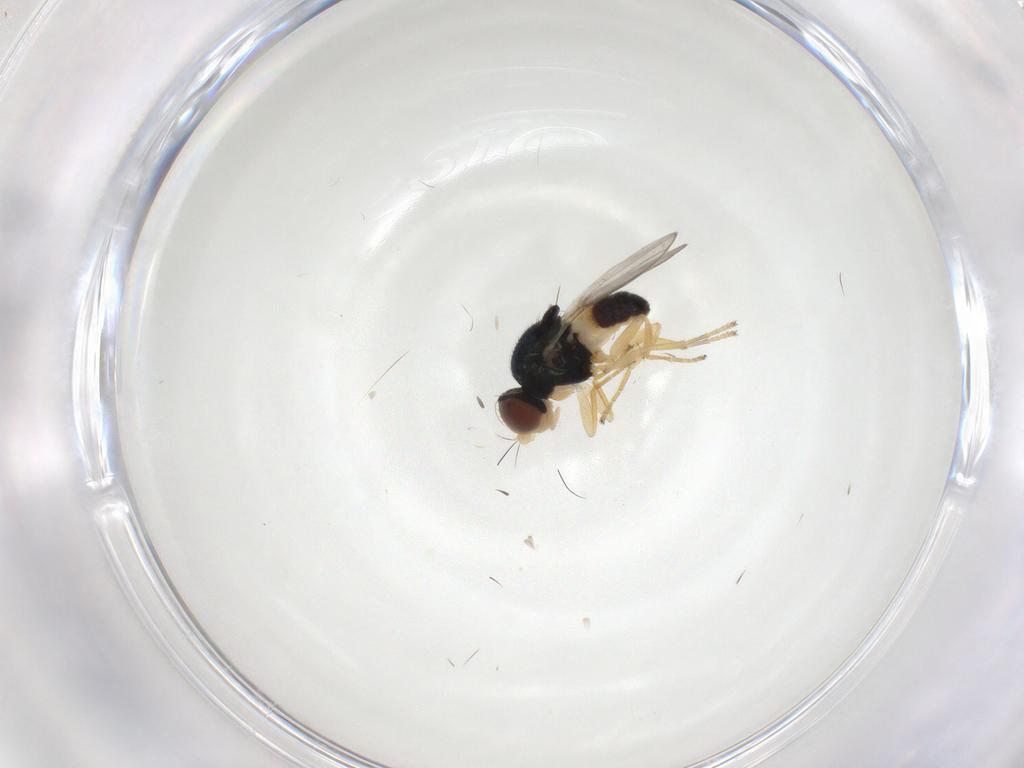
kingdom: Animalia
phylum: Arthropoda
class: Insecta
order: Diptera
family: Chloropidae
